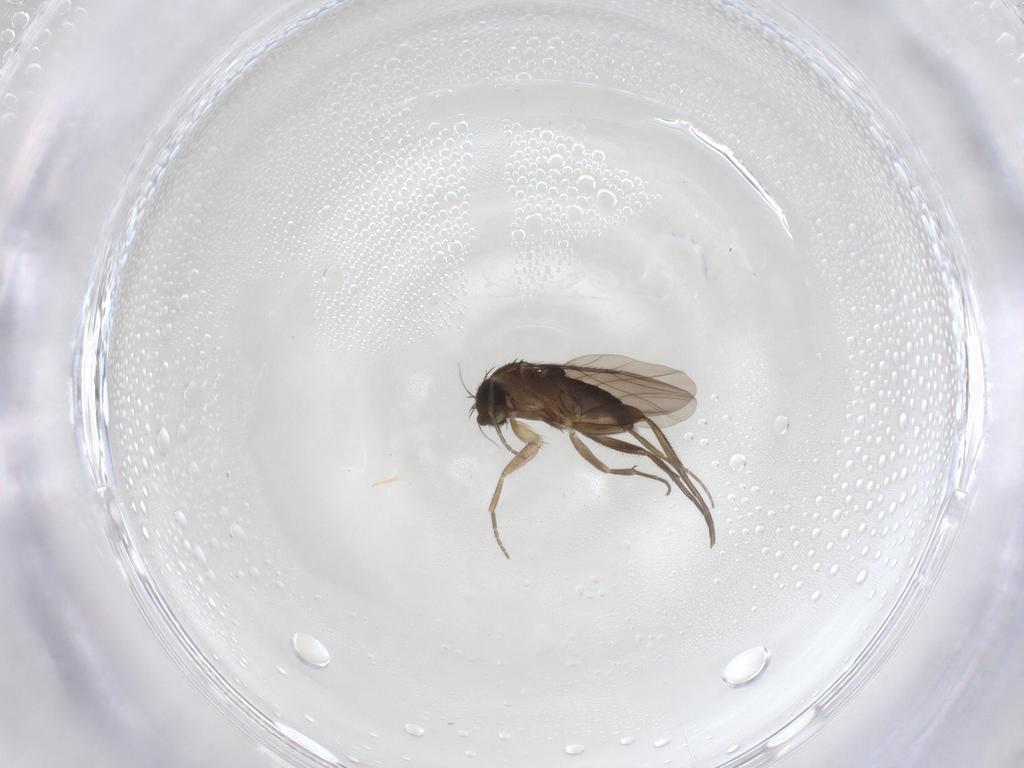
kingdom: Animalia
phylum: Arthropoda
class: Insecta
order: Diptera
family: Phoridae
